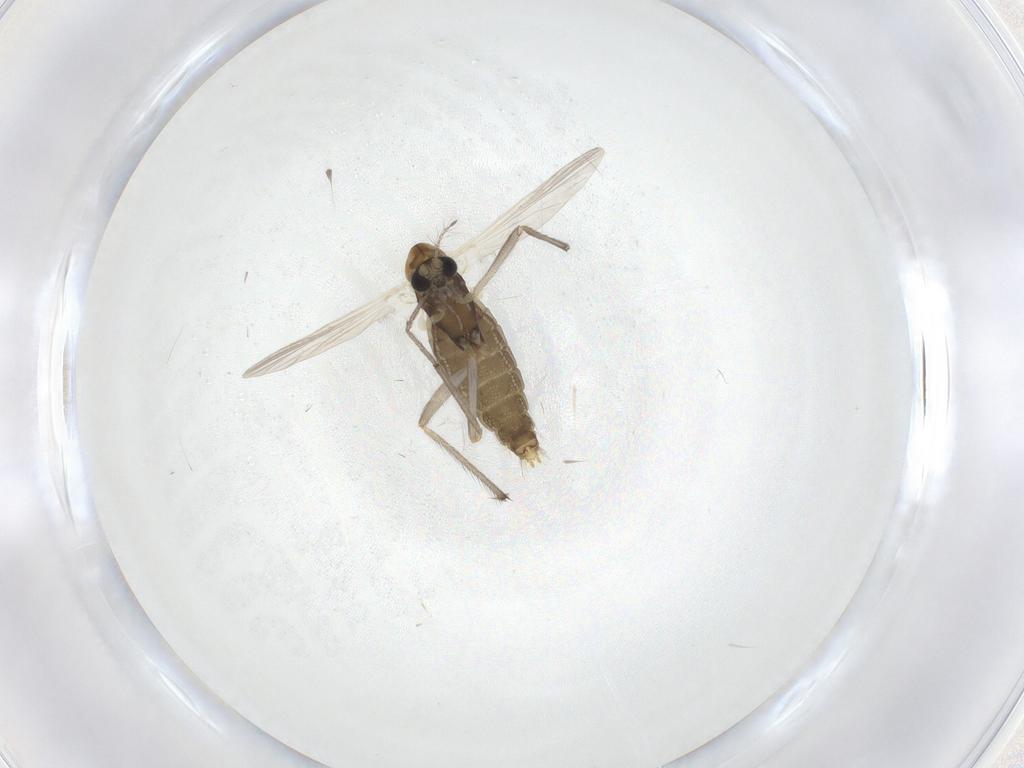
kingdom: Animalia
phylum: Arthropoda
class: Insecta
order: Diptera
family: Chironomidae
